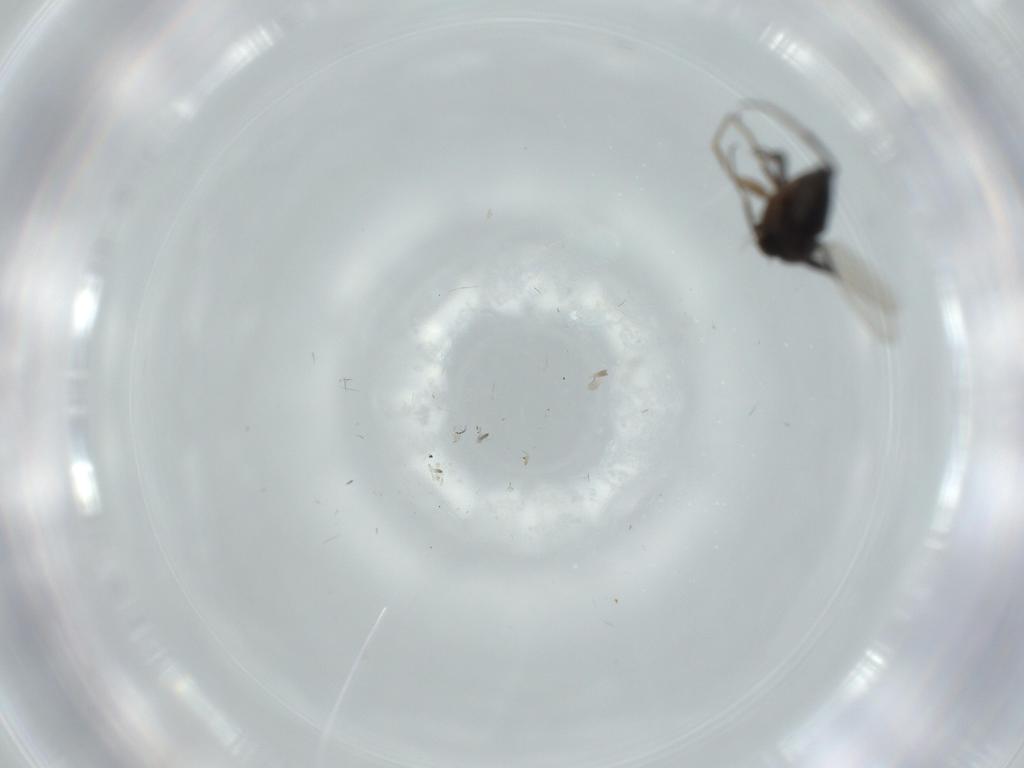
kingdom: Animalia
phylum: Arthropoda
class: Insecta
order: Diptera
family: Phoridae
